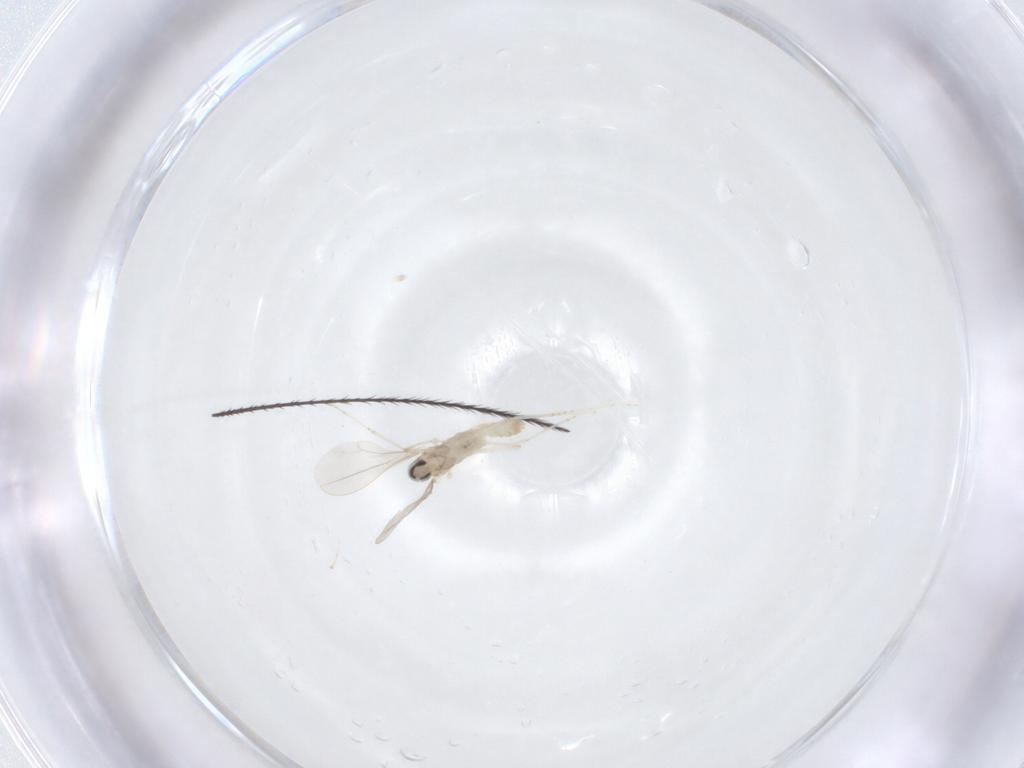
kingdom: Animalia
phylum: Arthropoda
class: Insecta
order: Diptera
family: Cecidomyiidae
